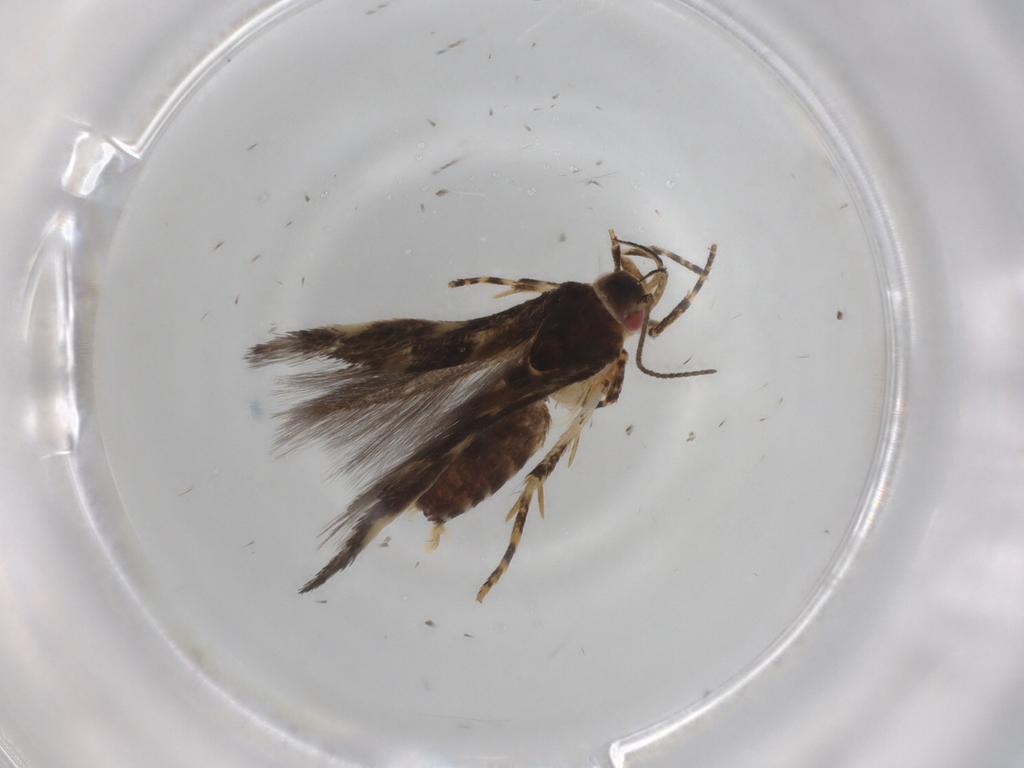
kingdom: Animalia
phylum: Arthropoda
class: Insecta
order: Lepidoptera
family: Cosmopterigidae
